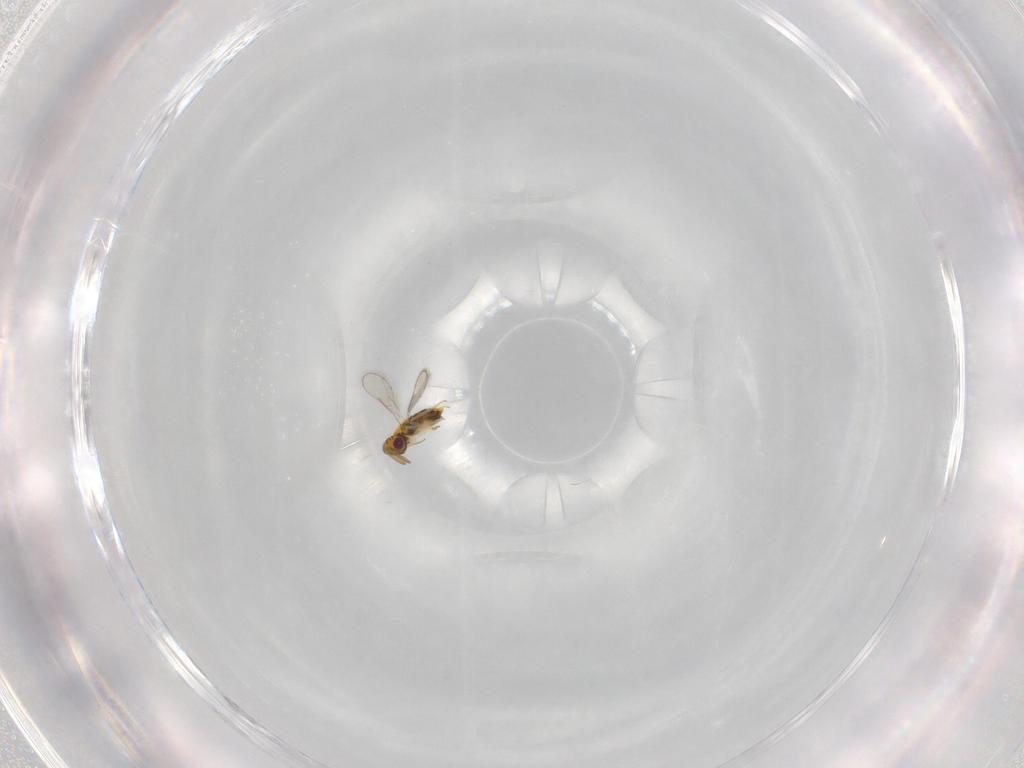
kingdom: Animalia
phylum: Arthropoda
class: Insecta
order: Hymenoptera
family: Aphelinidae
